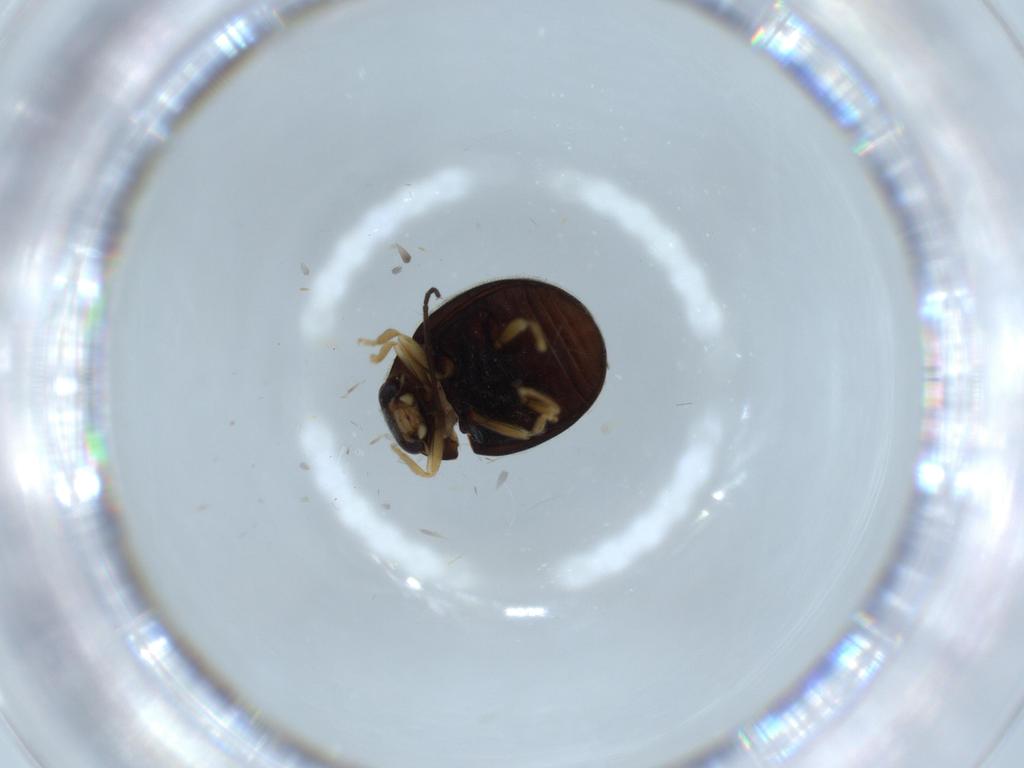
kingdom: Animalia
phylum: Arthropoda
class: Insecta
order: Coleoptera
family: Coccinellidae
